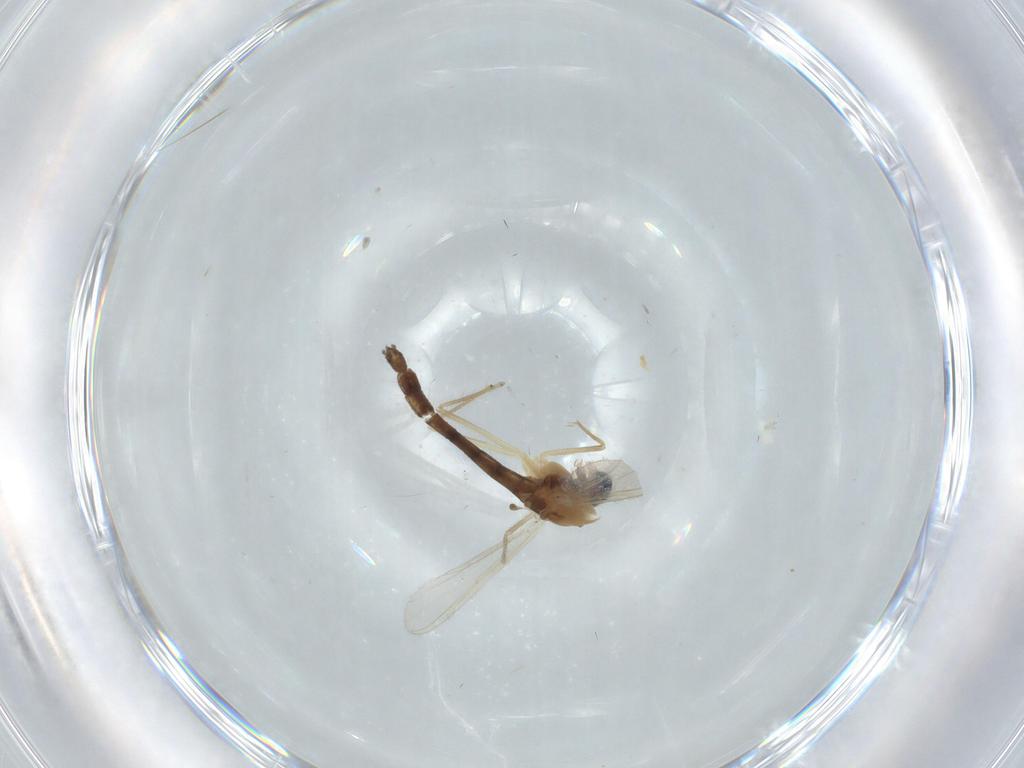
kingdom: Animalia
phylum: Arthropoda
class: Insecta
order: Diptera
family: Chironomidae
